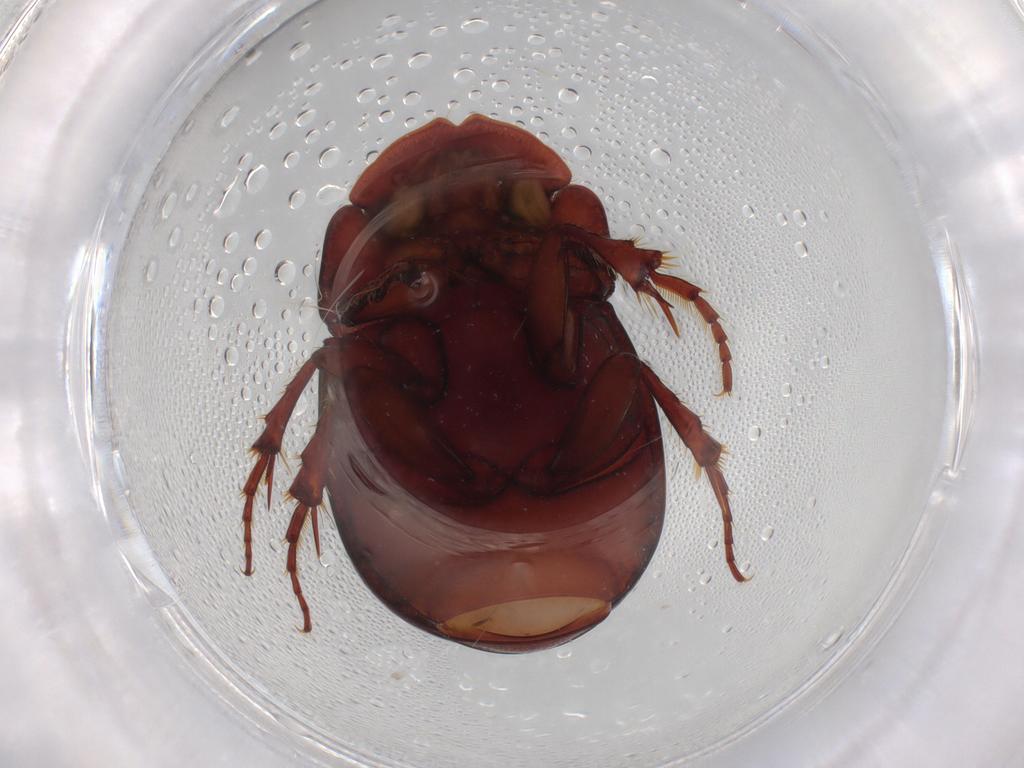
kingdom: Animalia
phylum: Arthropoda
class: Insecta
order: Coleoptera
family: Scarabaeidae
